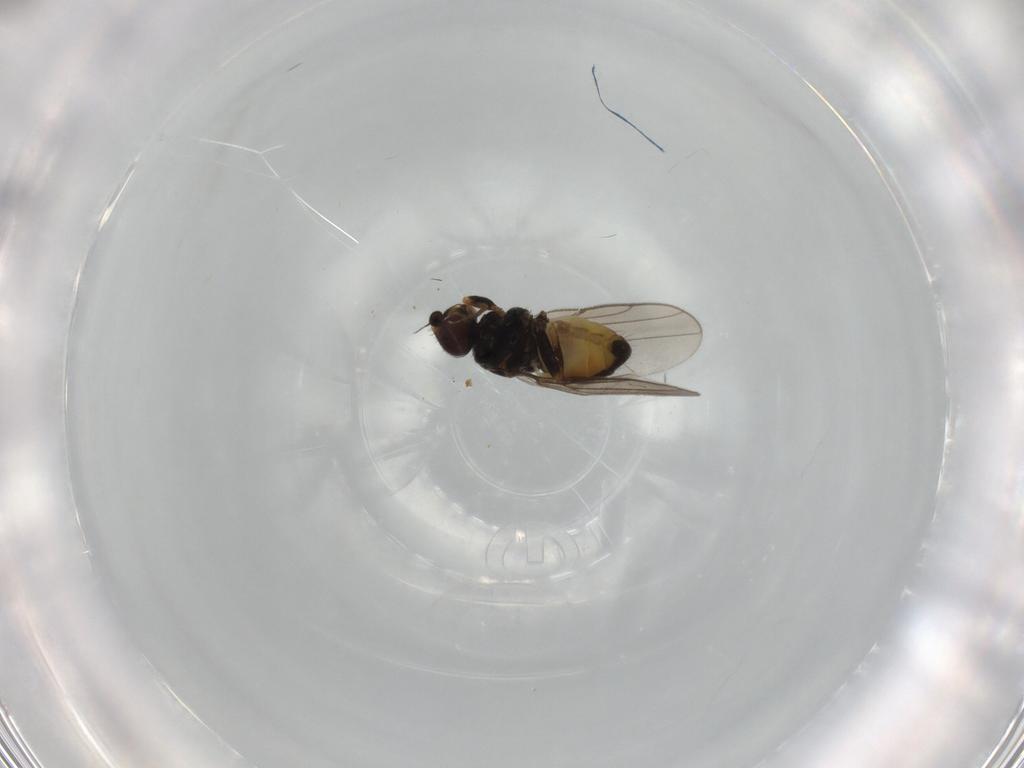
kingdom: Animalia
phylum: Arthropoda
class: Insecta
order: Diptera
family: Chloropidae
